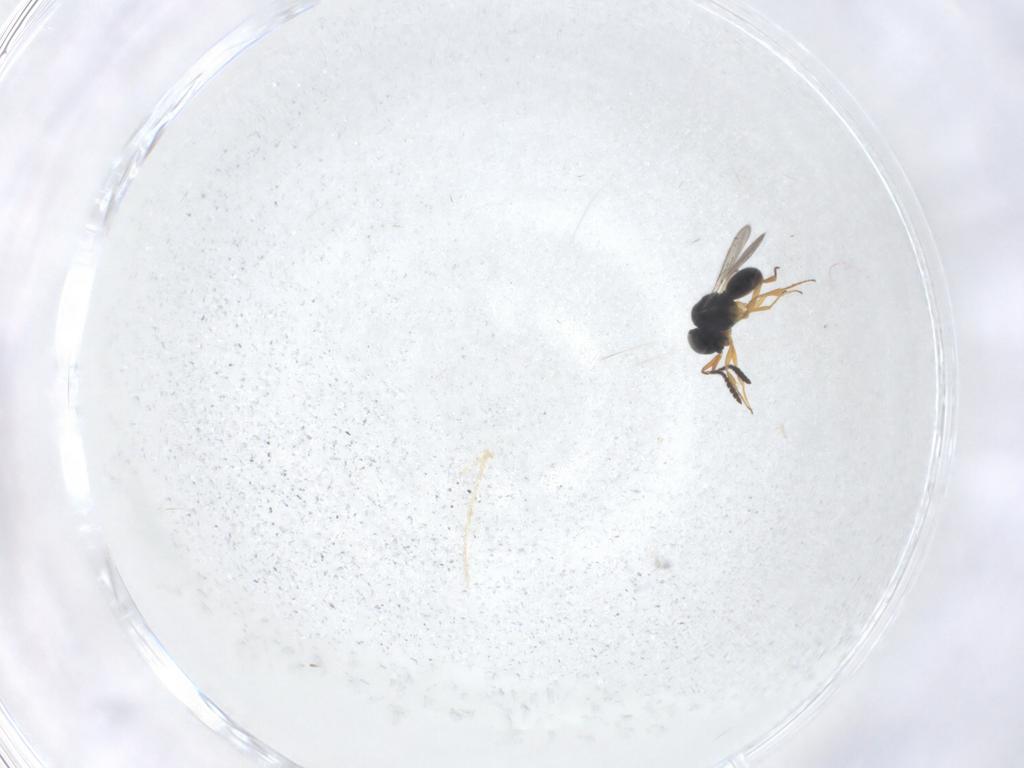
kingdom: Animalia
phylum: Arthropoda
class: Insecta
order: Hymenoptera
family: Scelionidae
